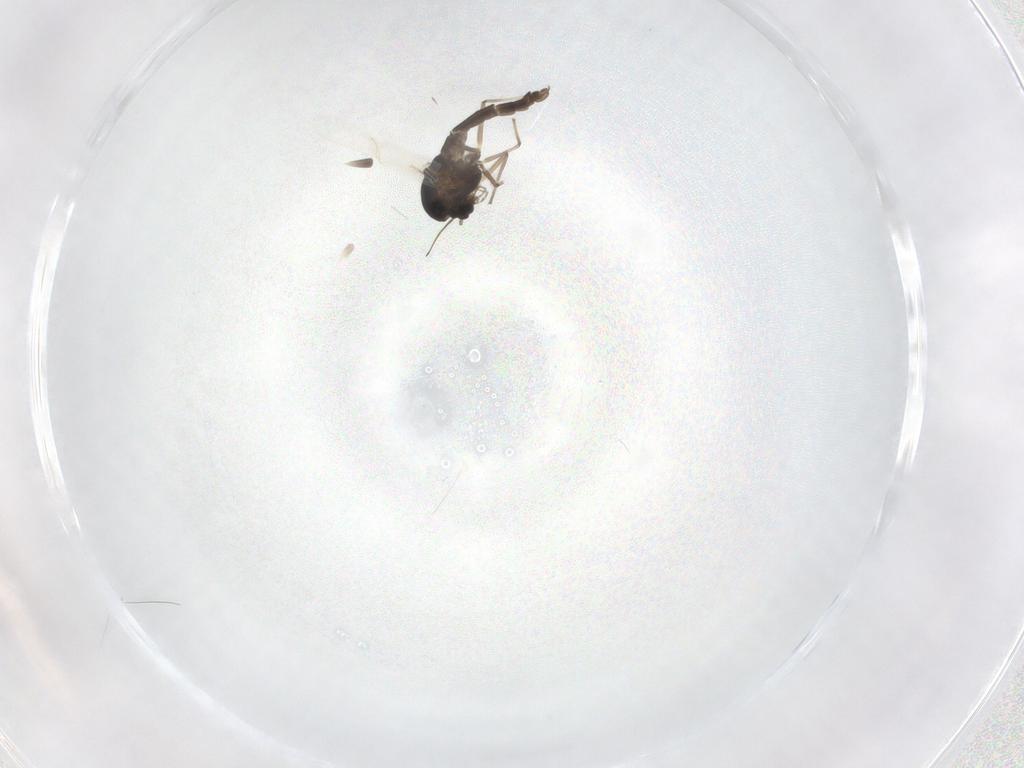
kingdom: Animalia
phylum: Arthropoda
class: Insecta
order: Diptera
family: Chironomidae
